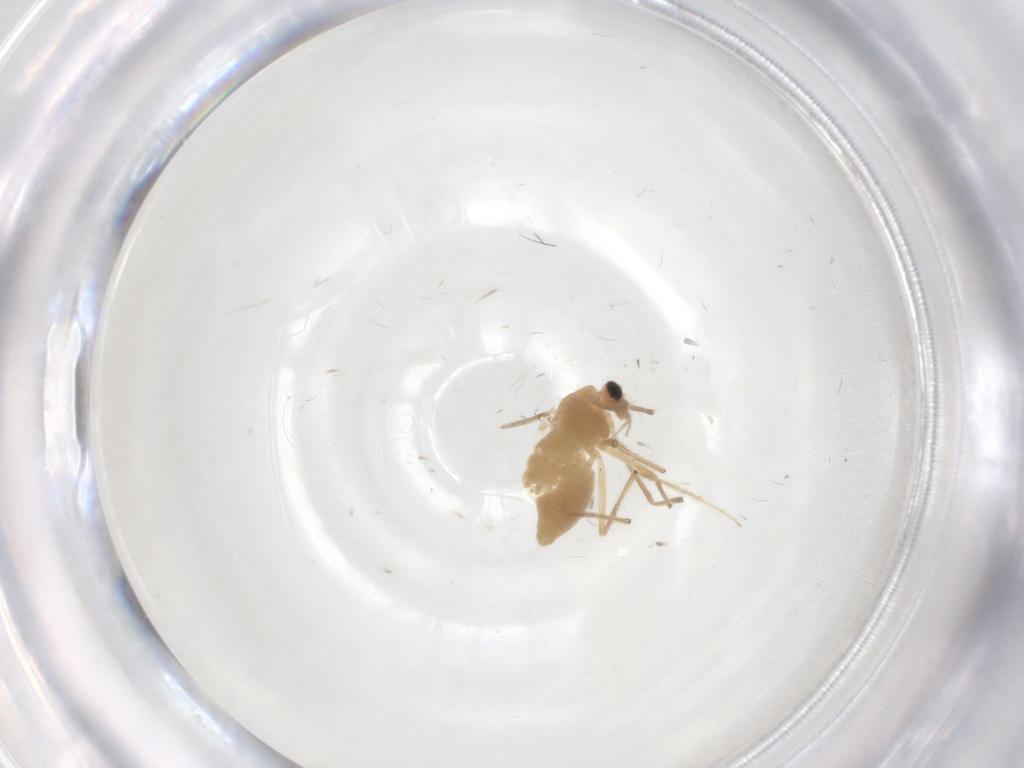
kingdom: Animalia
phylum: Arthropoda
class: Insecta
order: Diptera
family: Chironomidae
